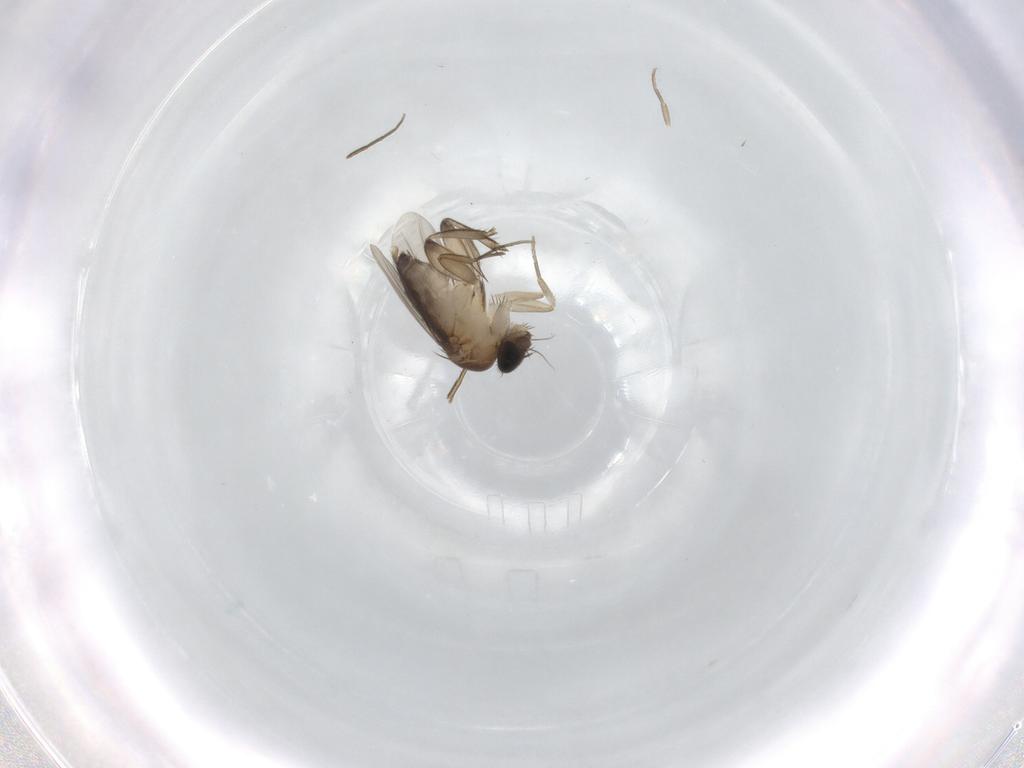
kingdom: Animalia
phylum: Arthropoda
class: Insecta
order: Diptera
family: Phoridae
